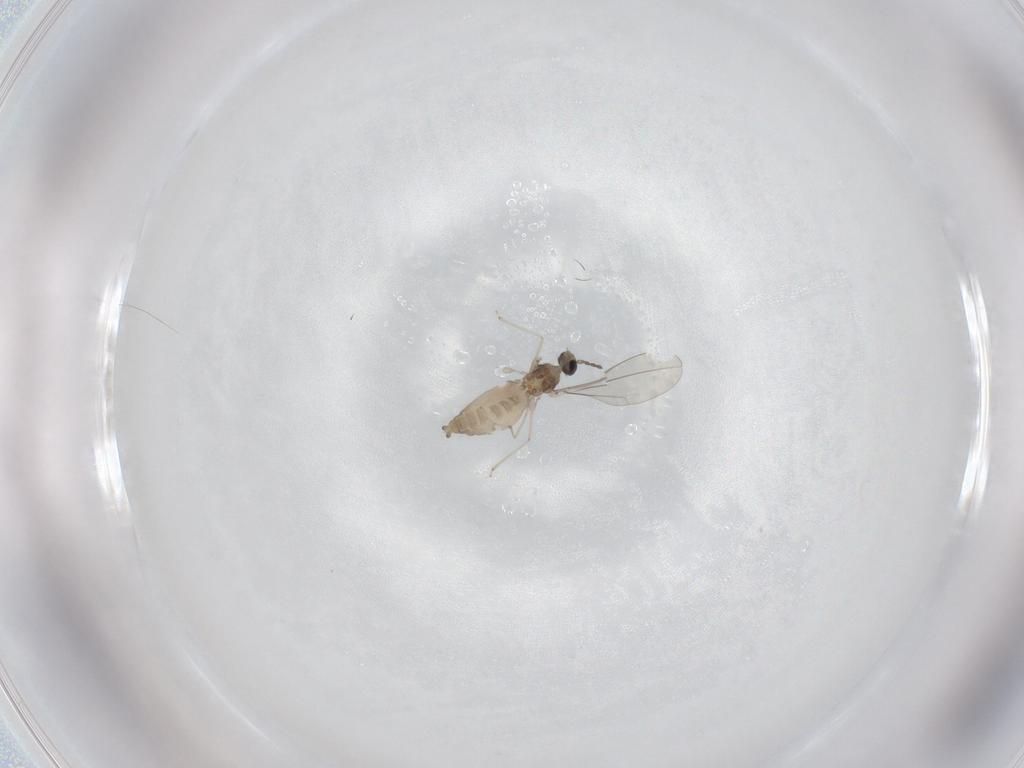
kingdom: Animalia
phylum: Arthropoda
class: Insecta
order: Diptera
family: Cecidomyiidae
